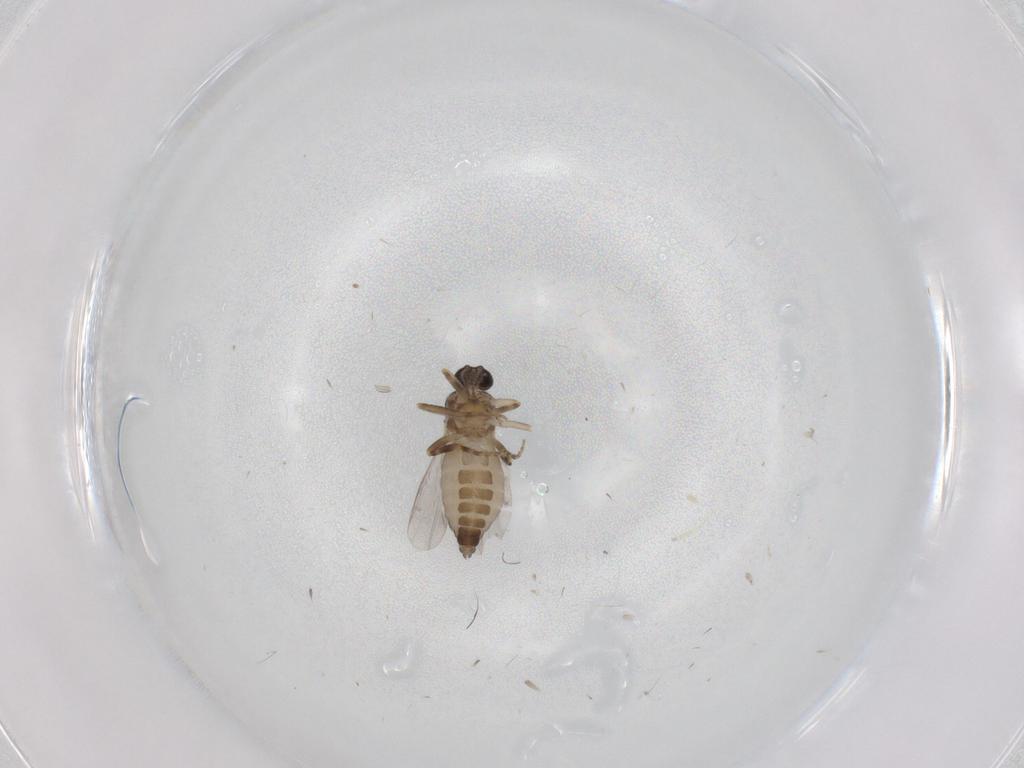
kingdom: Animalia
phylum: Arthropoda
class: Insecta
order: Diptera
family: Ceratopogonidae
